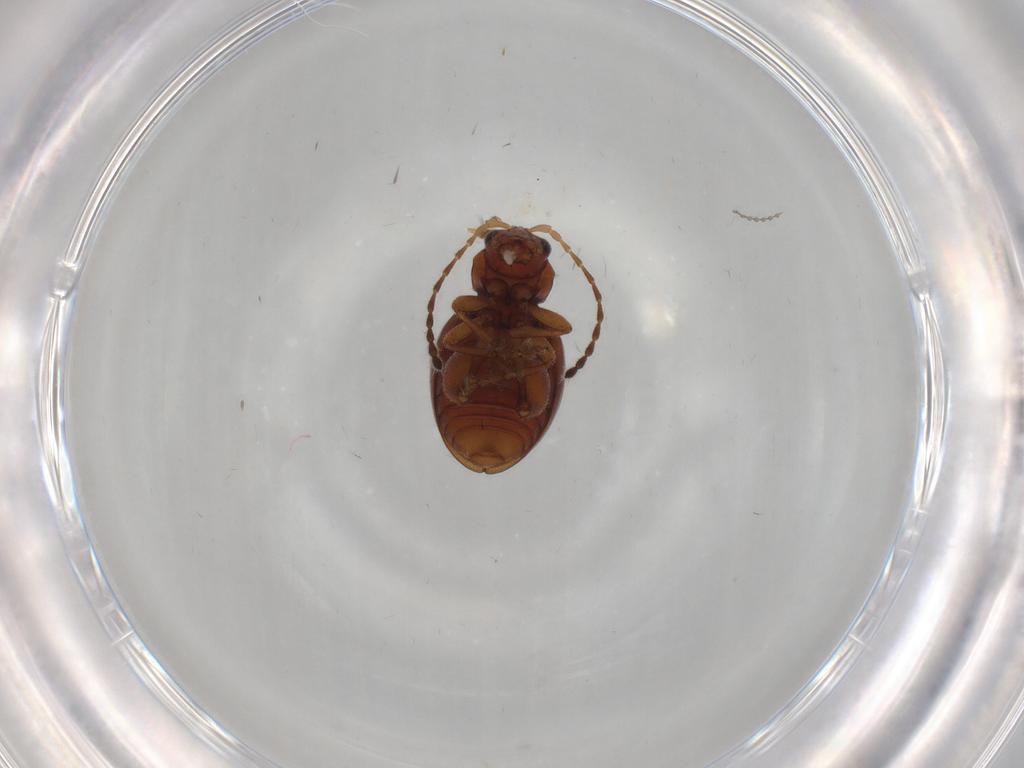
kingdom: Animalia
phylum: Arthropoda
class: Insecta
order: Coleoptera
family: Chrysomelidae
